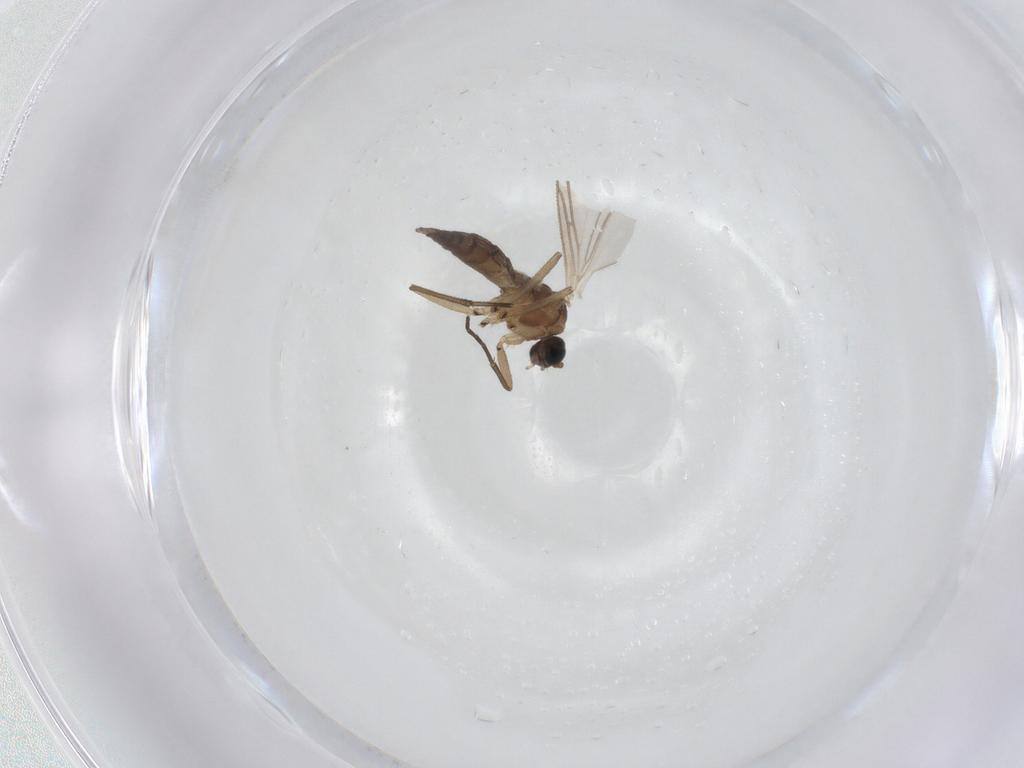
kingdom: Animalia
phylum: Arthropoda
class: Insecta
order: Diptera
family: Sciaridae
